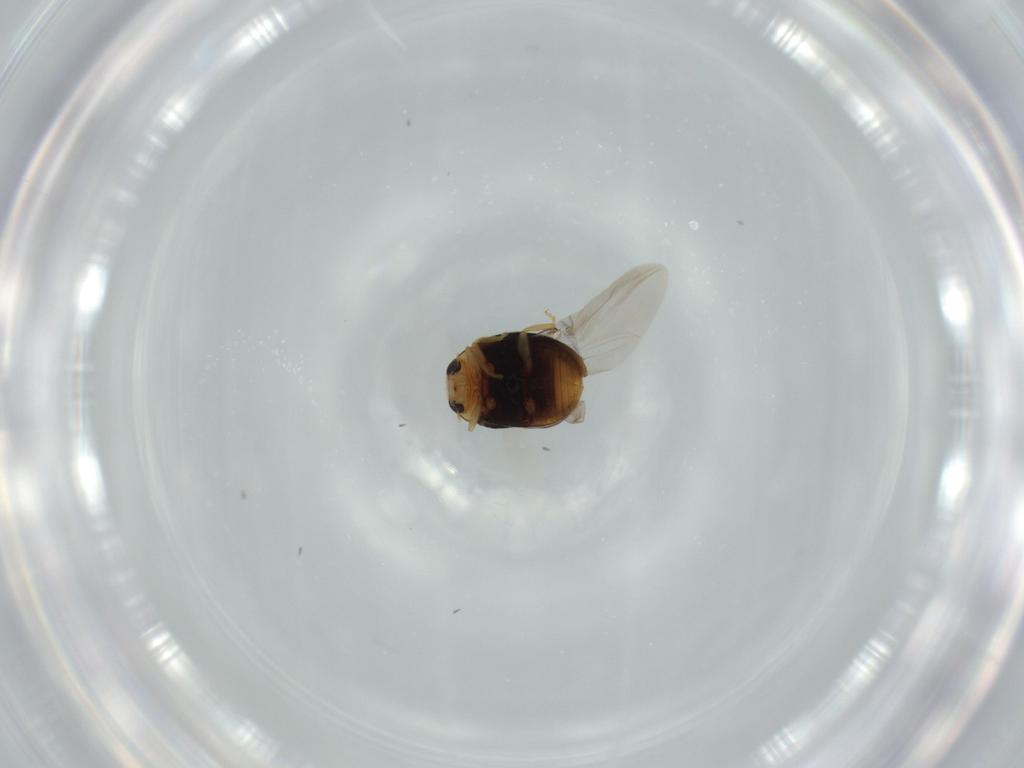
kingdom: Animalia
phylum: Arthropoda
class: Insecta
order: Coleoptera
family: Coccinellidae
